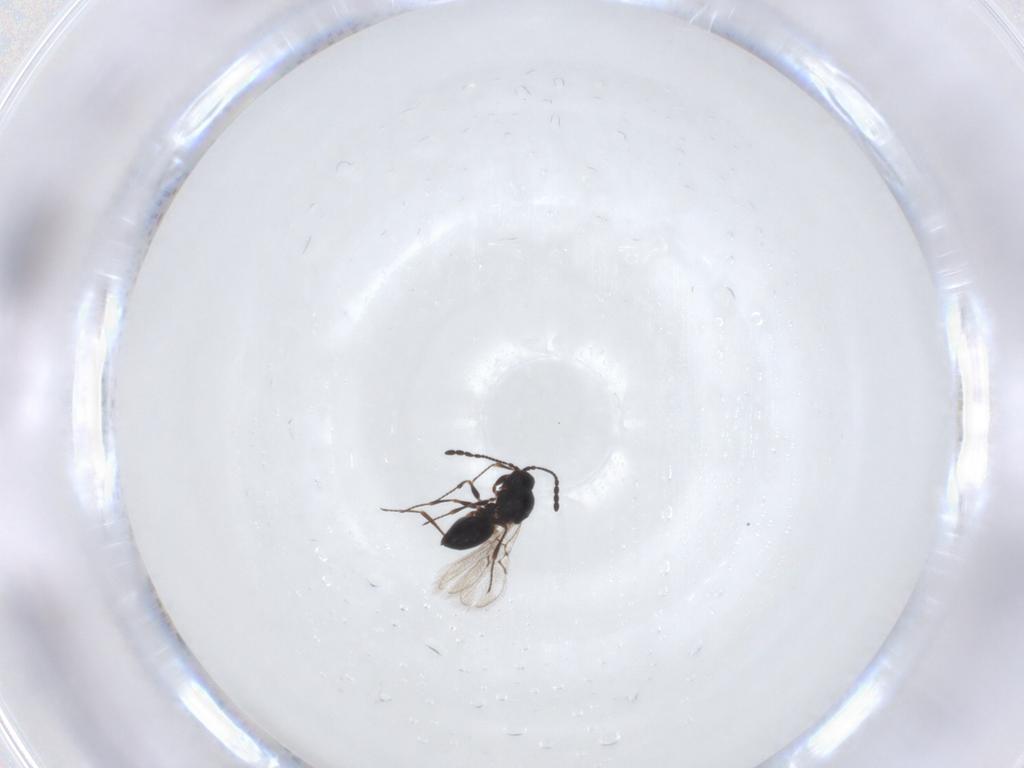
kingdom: Animalia
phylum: Arthropoda
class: Insecta
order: Hymenoptera
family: Figitidae
